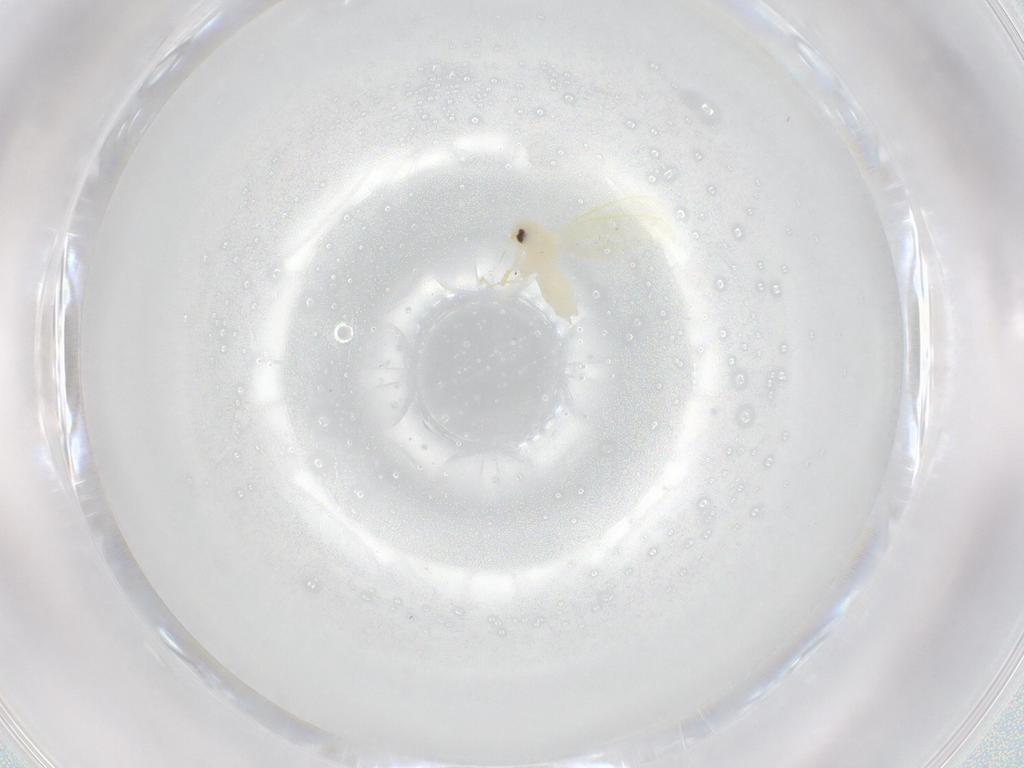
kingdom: Animalia
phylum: Arthropoda
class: Insecta
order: Hemiptera
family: Aleyrodidae
